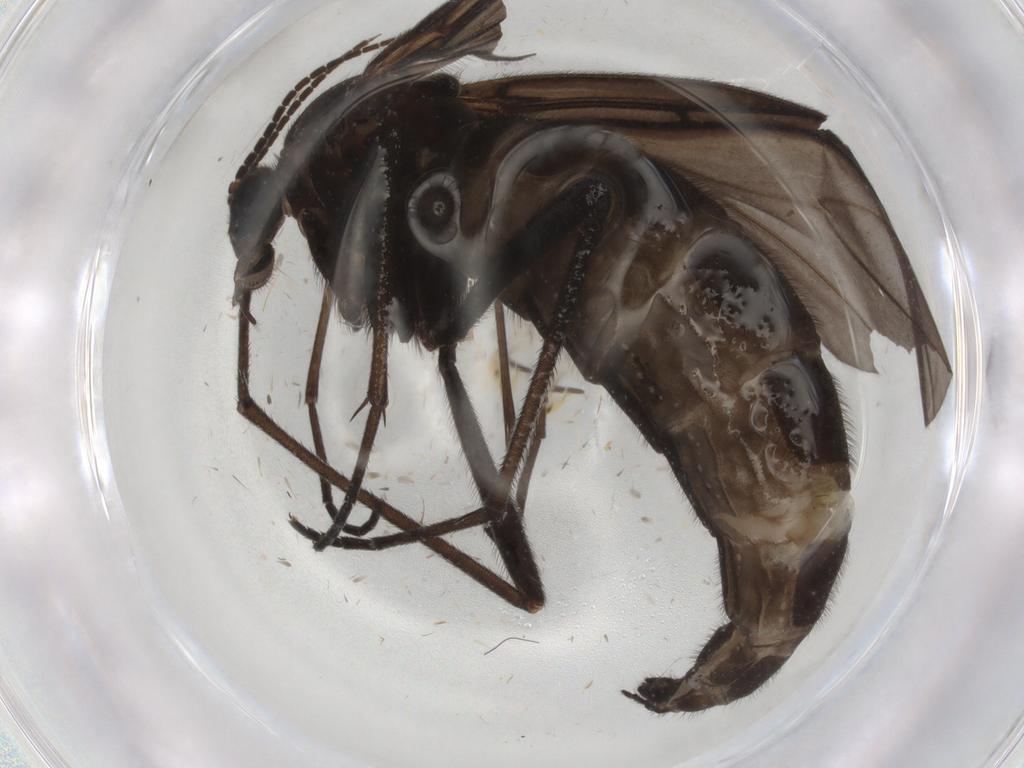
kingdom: Animalia
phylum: Arthropoda
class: Insecta
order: Diptera
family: Sciaridae
